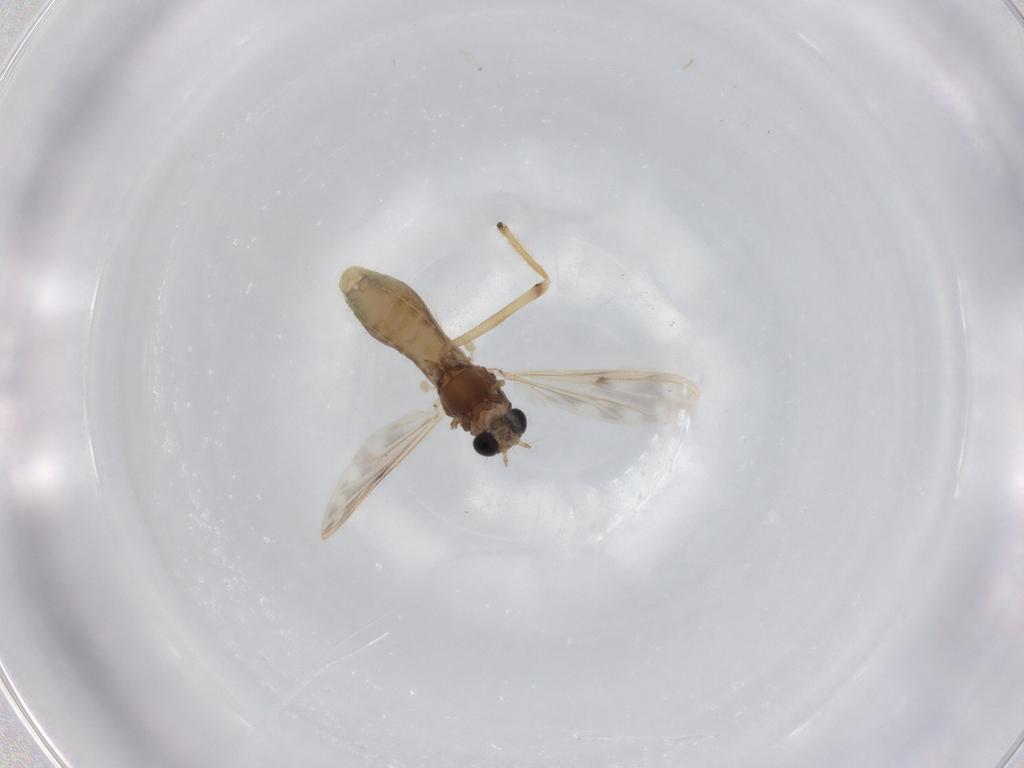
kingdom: Animalia
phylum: Arthropoda
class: Insecta
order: Diptera
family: Chironomidae
